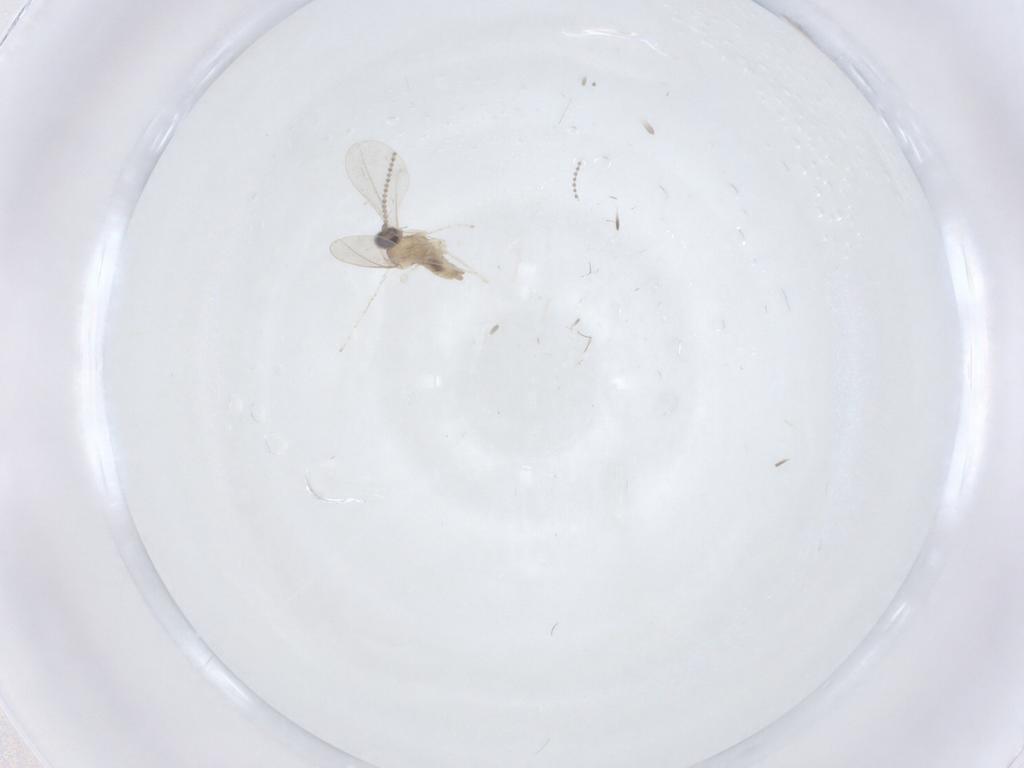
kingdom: Animalia
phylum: Arthropoda
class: Insecta
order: Diptera
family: Cecidomyiidae
